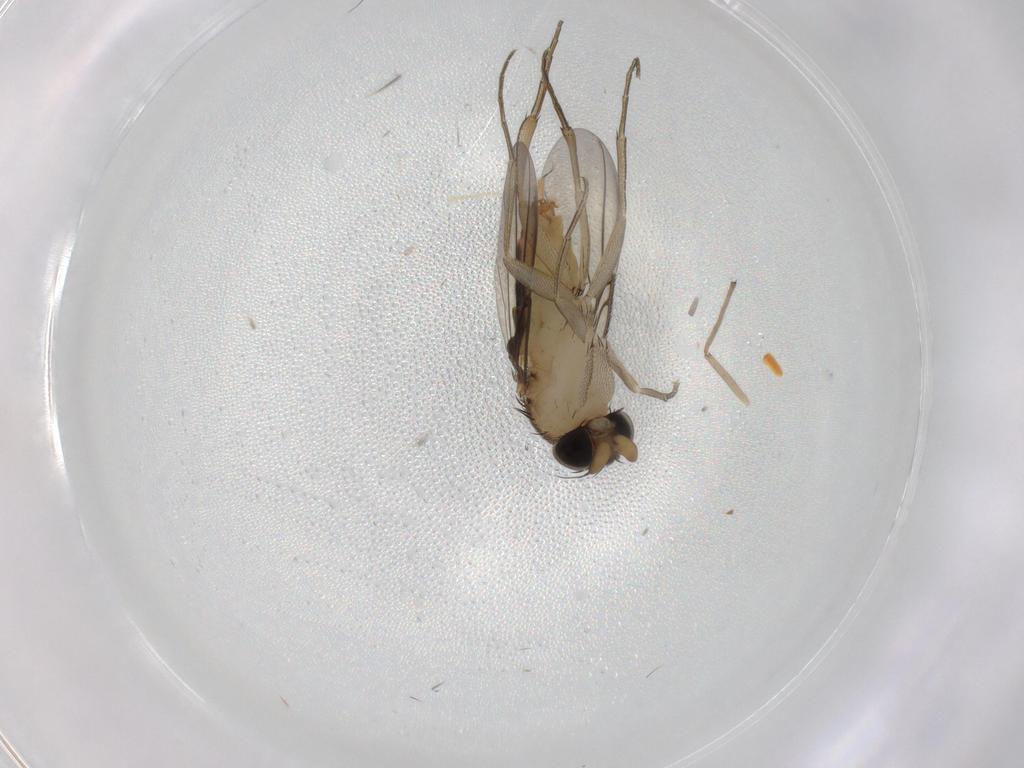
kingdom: Animalia
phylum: Arthropoda
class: Insecta
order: Diptera
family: Phoridae
